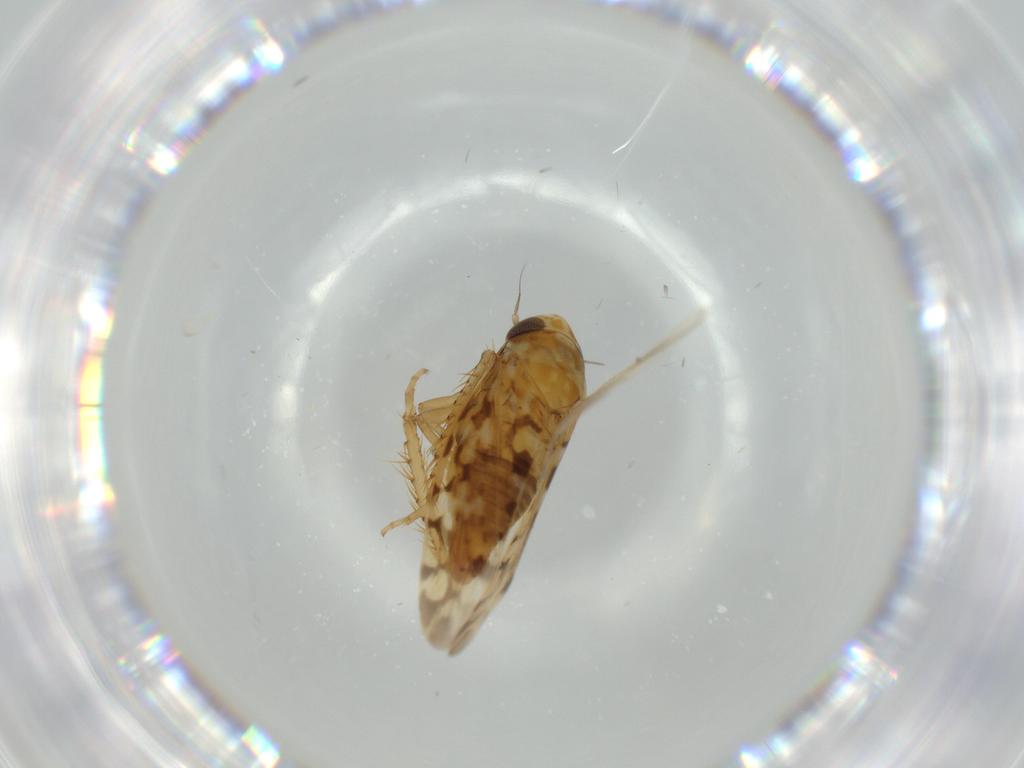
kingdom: Animalia
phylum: Arthropoda
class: Insecta
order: Hemiptera
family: Cicadellidae
